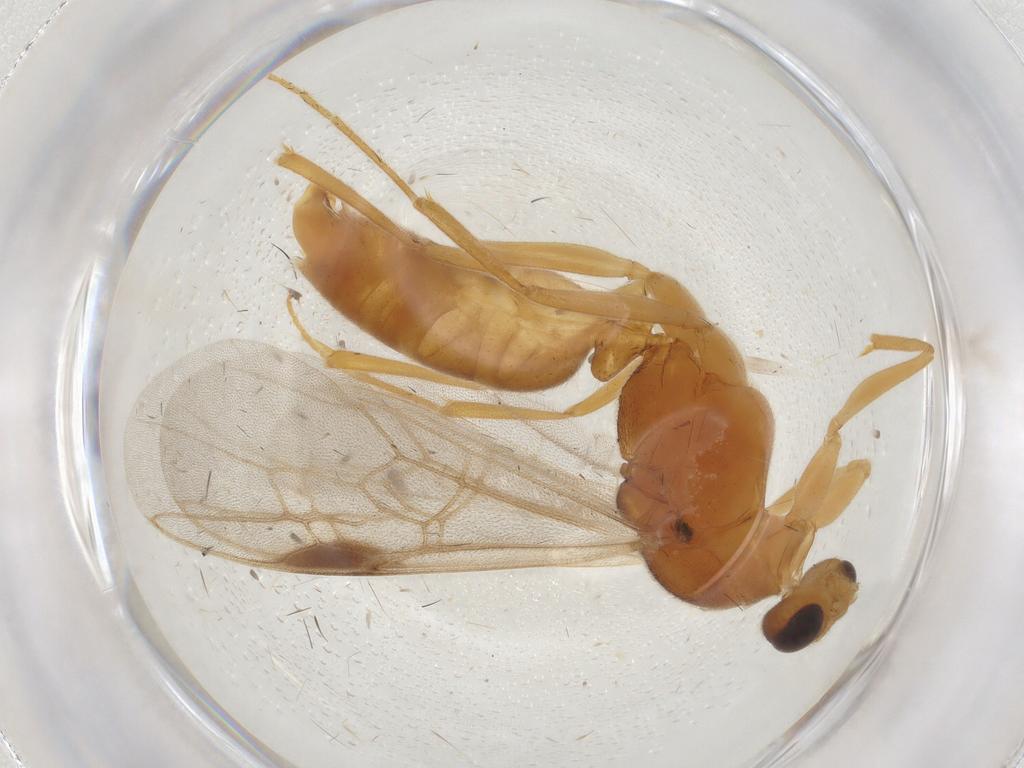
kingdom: Animalia
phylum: Arthropoda
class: Insecta
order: Hymenoptera
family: Formicidae
